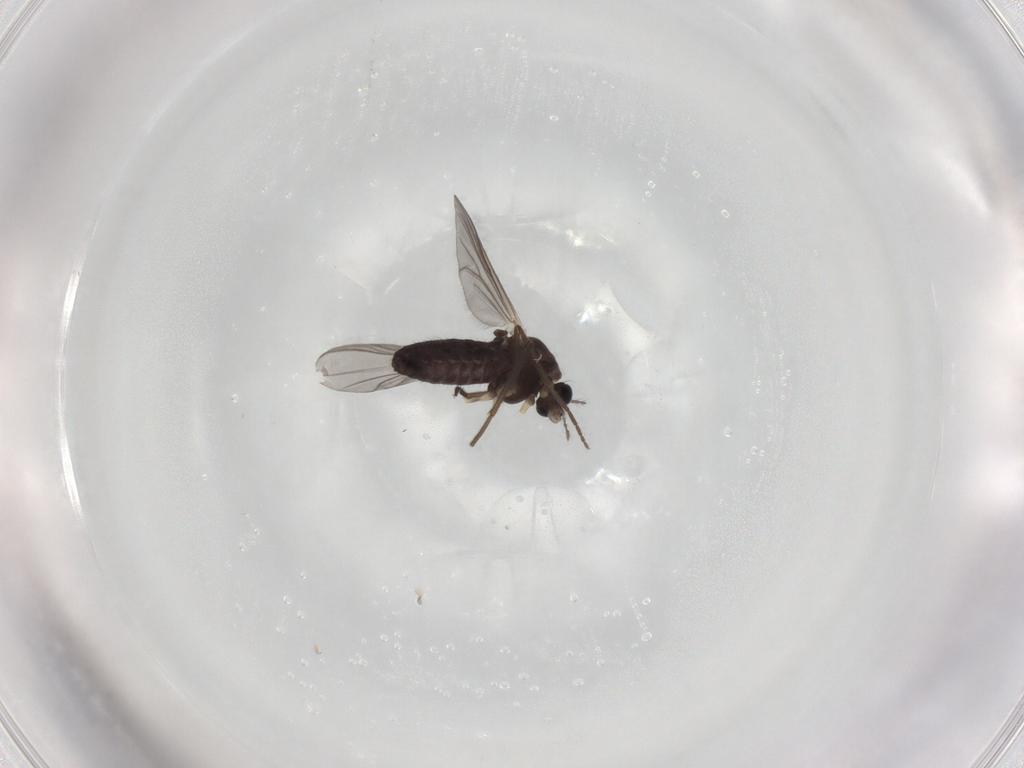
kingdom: Animalia
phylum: Arthropoda
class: Insecta
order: Diptera
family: Chironomidae
